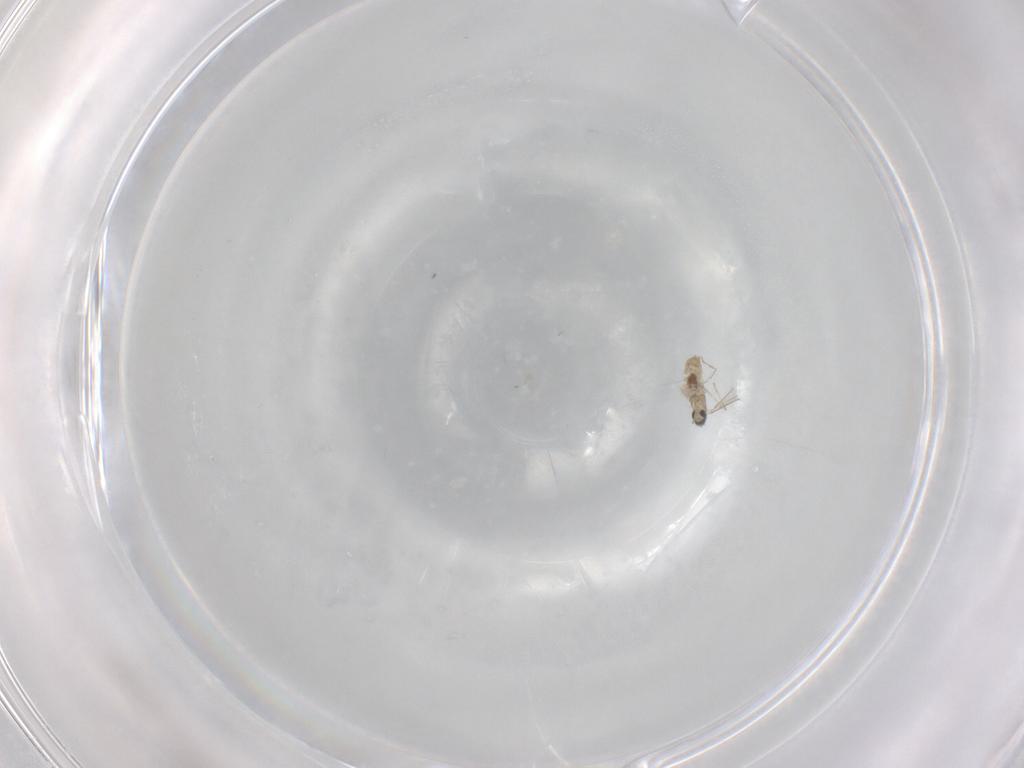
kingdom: Animalia
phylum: Arthropoda
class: Insecta
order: Diptera
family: Cecidomyiidae
